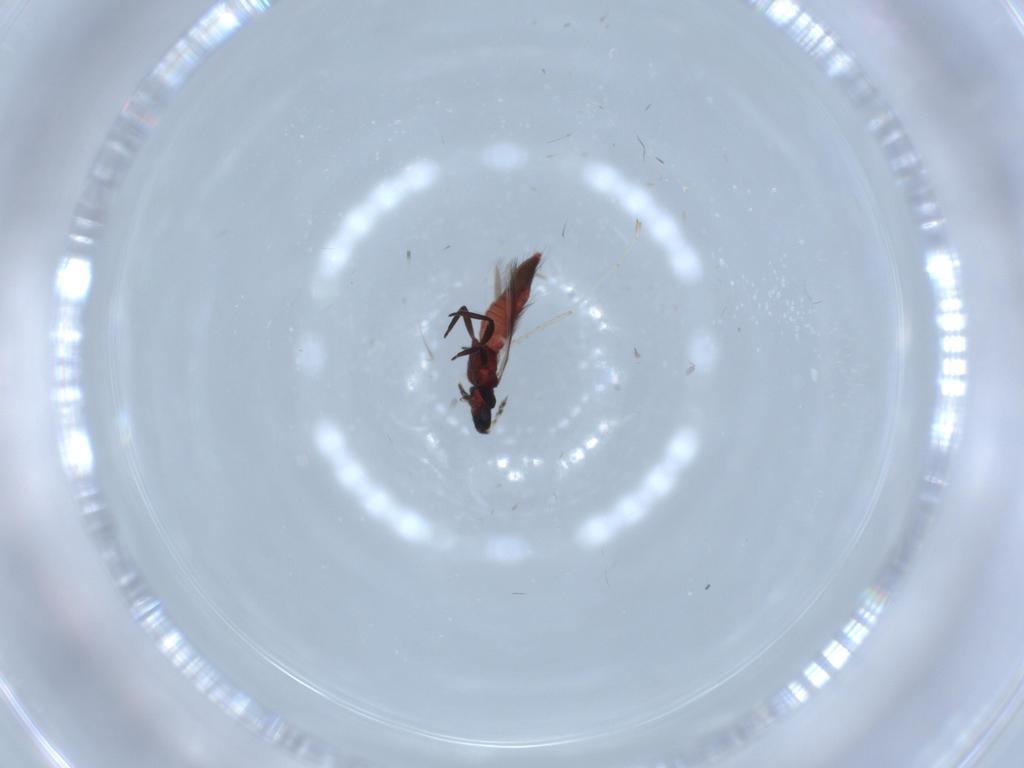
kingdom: Animalia
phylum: Arthropoda
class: Insecta
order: Thysanoptera
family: Aeolothripidae
